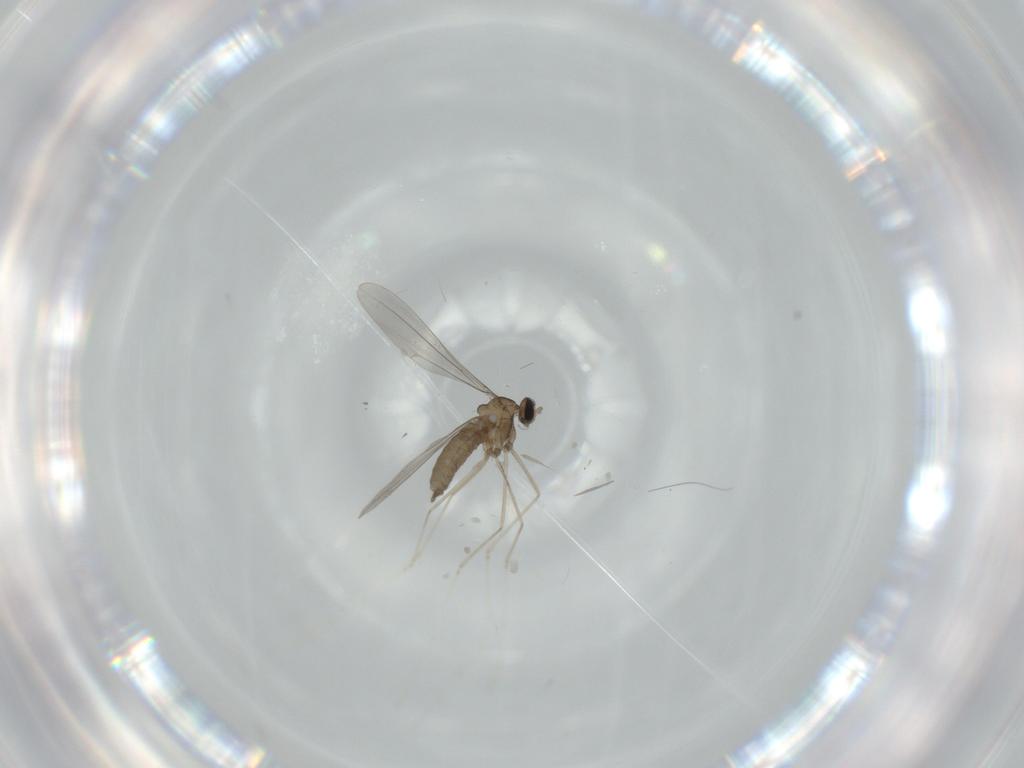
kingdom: Animalia
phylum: Arthropoda
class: Insecta
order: Diptera
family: Cecidomyiidae
